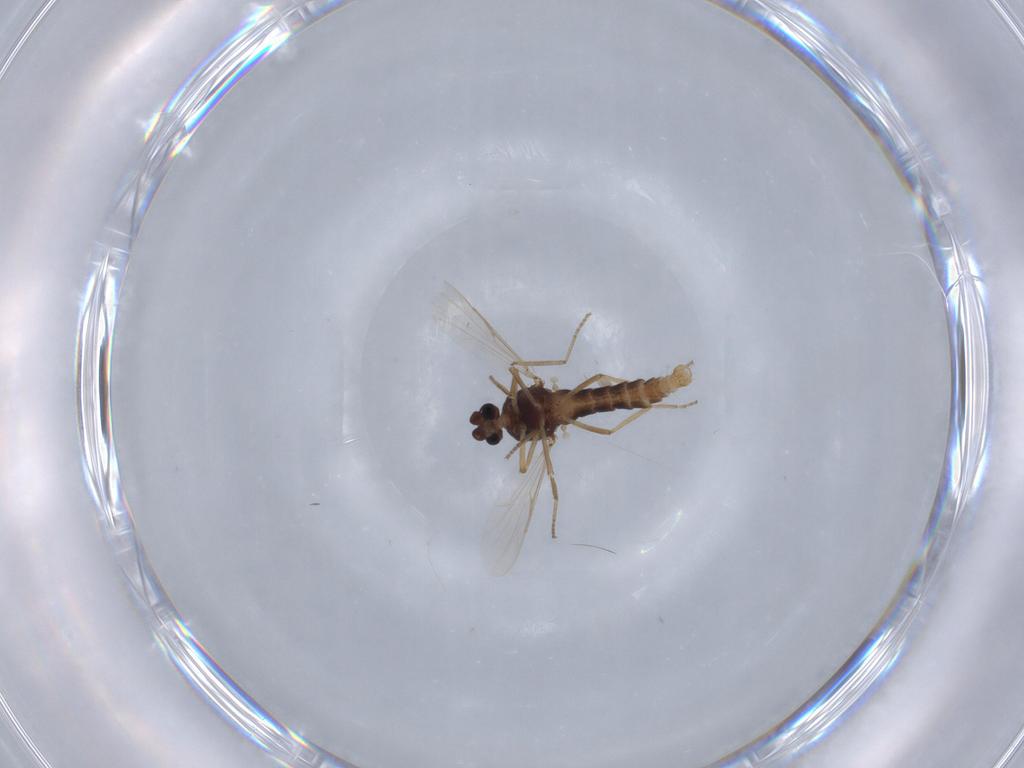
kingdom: Animalia
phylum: Arthropoda
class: Insecta
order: Diptera
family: Ceratopogonidae
